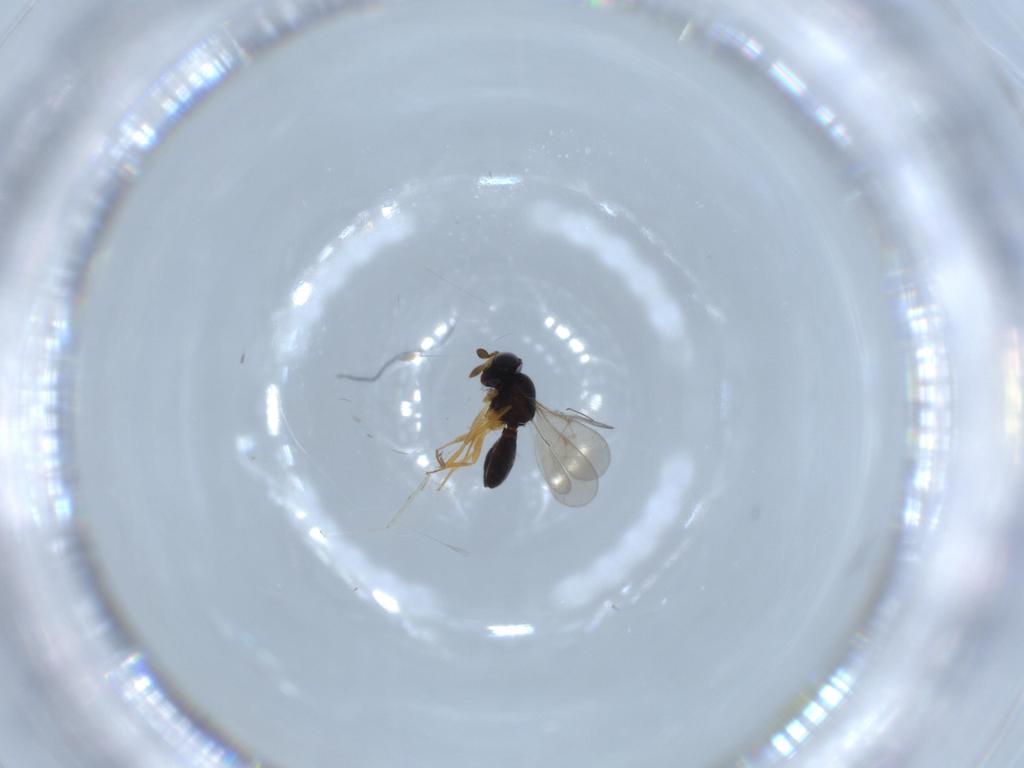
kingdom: Animalia
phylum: Arthropoda
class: Insecta
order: Hymenoptera
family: Scelionidae
